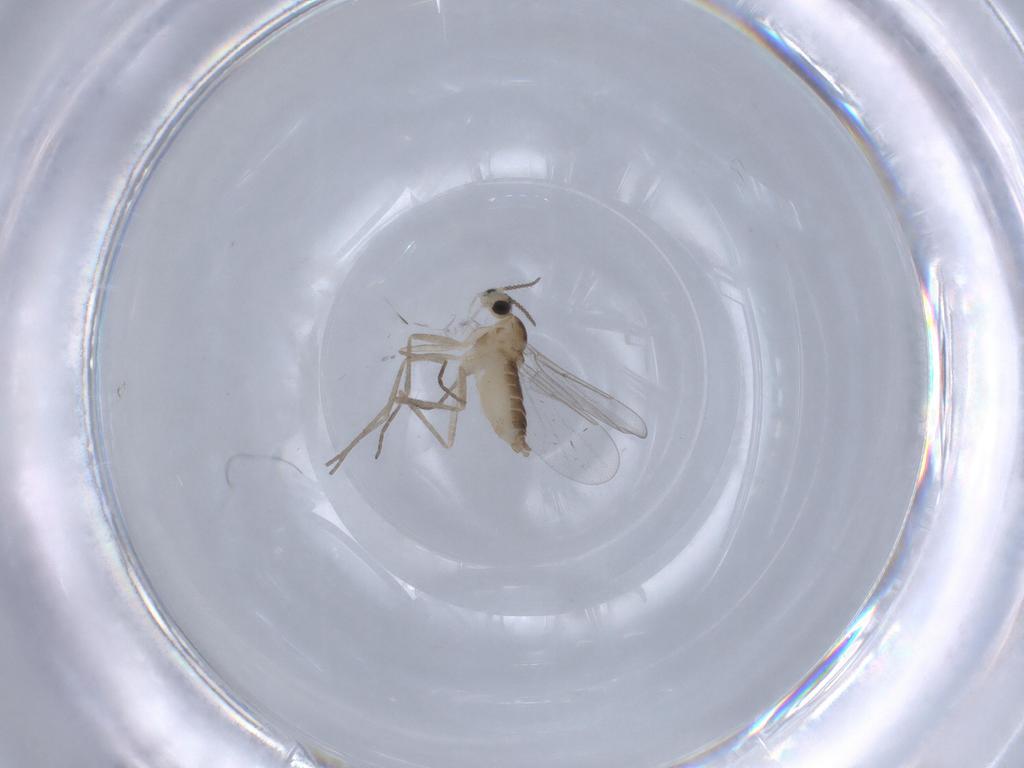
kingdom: Animalia
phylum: Arthropoda
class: Insecta
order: Diptera
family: Cecidomyiidae
